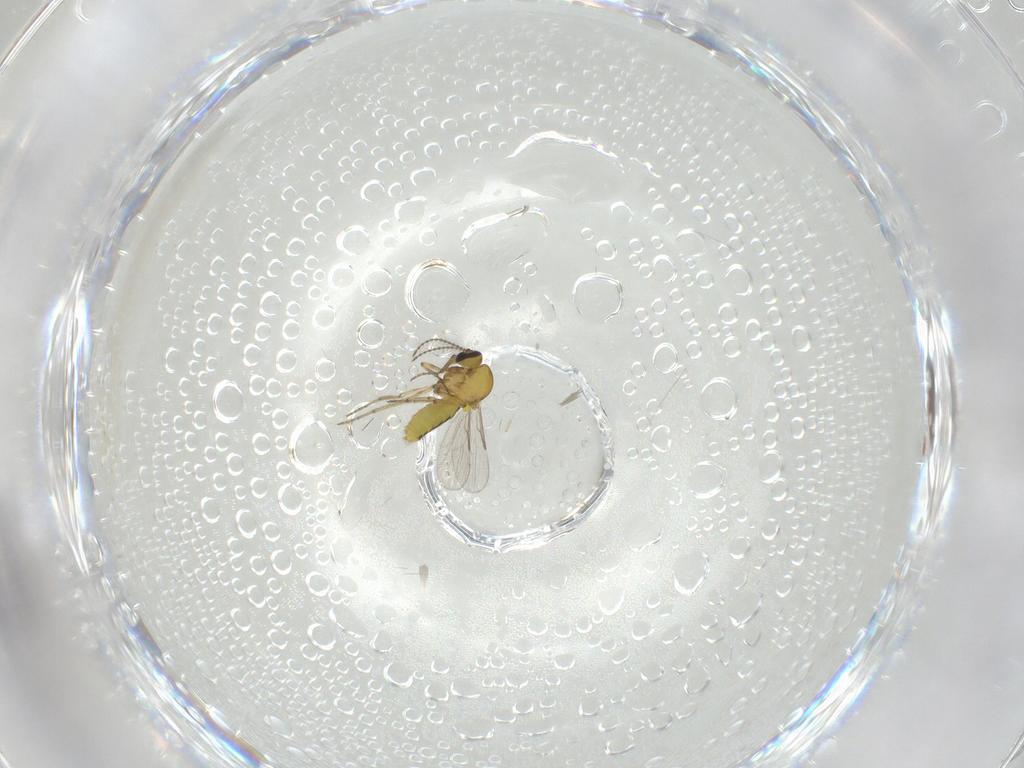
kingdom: Animalia
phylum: Arthropoda
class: Insecta
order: Diptera
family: Chironomidae
